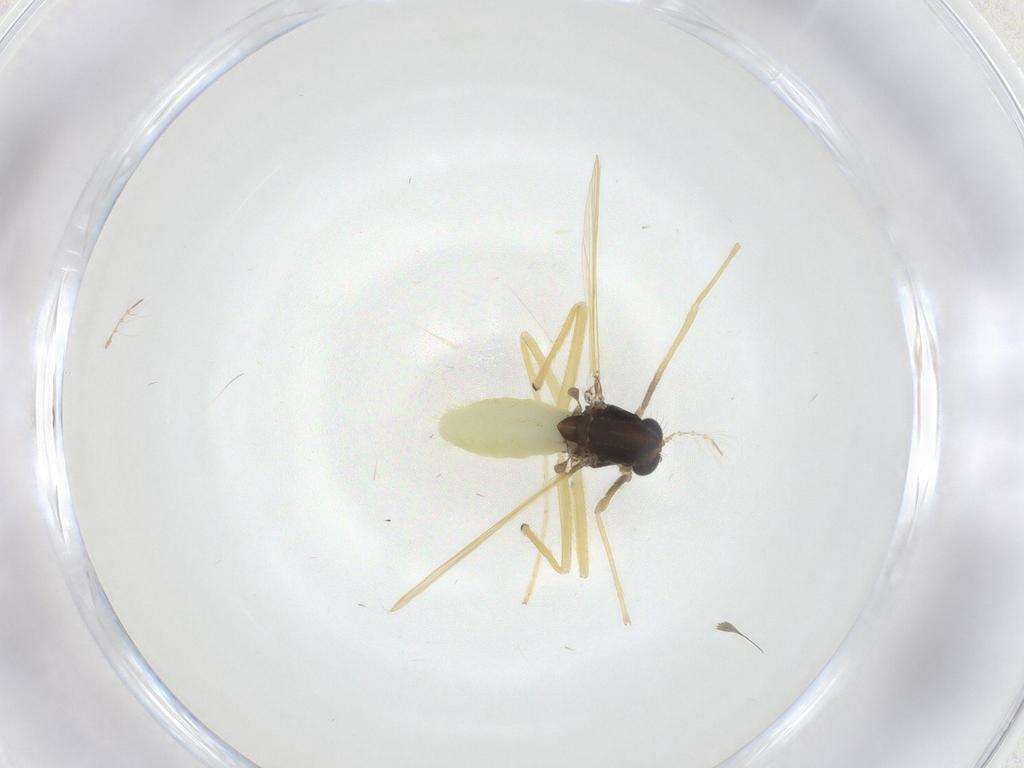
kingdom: Animalia
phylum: Arthropoda
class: Insecta
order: Diptera
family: Chironomidae
